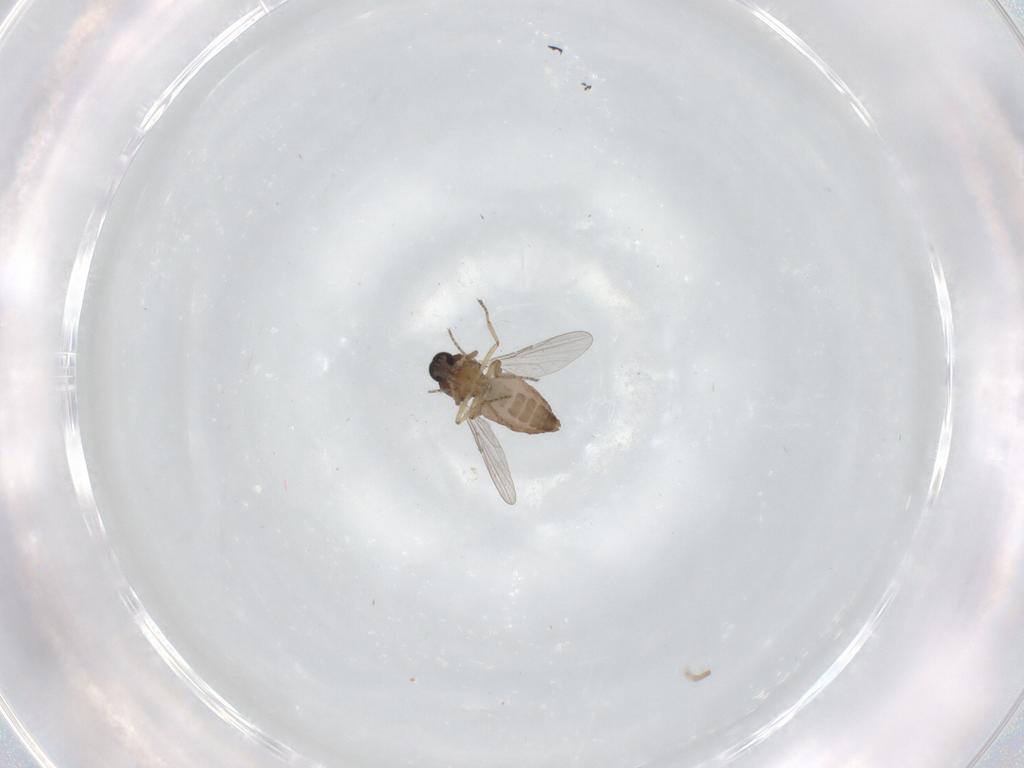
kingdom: Animalia
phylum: Arthropoda
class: Insecta
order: Diptera
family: Ceratopogonidae
